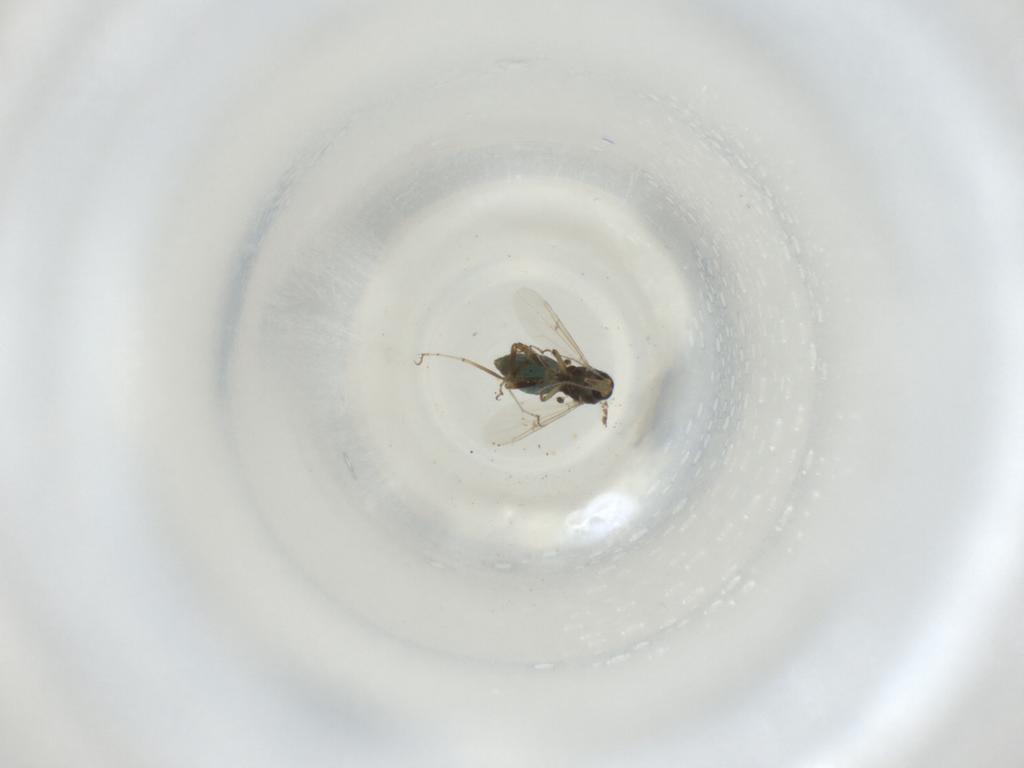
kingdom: Animalia
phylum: Arthropoda
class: Insecta
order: Diptera
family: Ceratopogonidae
